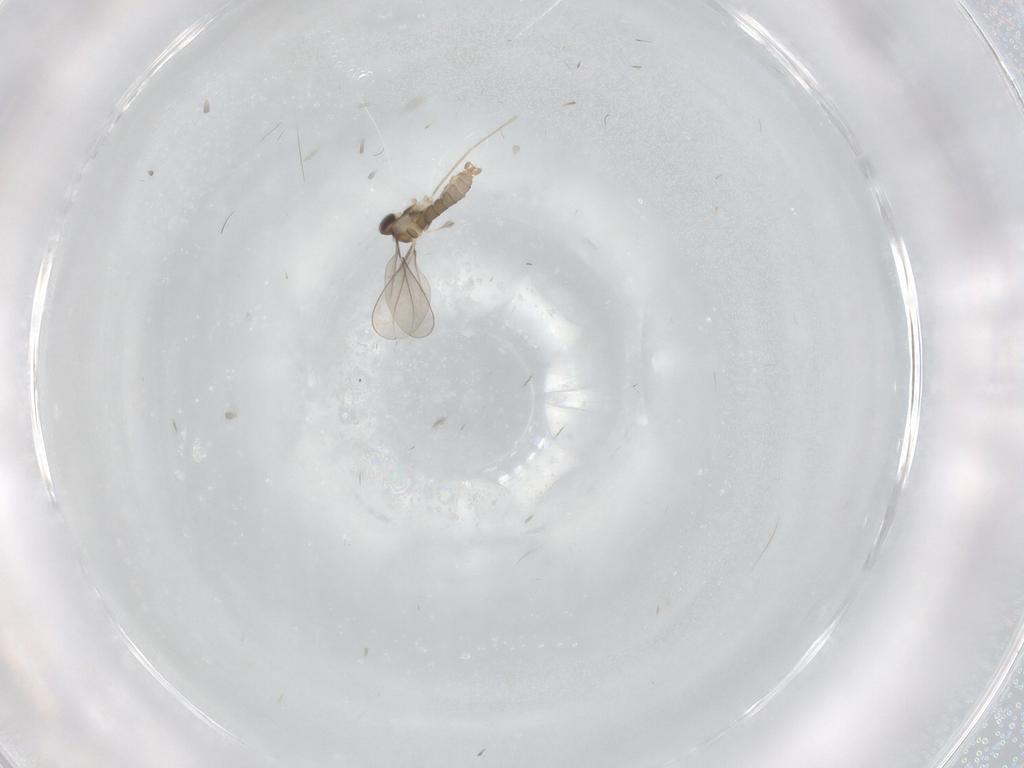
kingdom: Animalia
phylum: Arthropoda
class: Insecta
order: Diptera
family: Chironomidae
